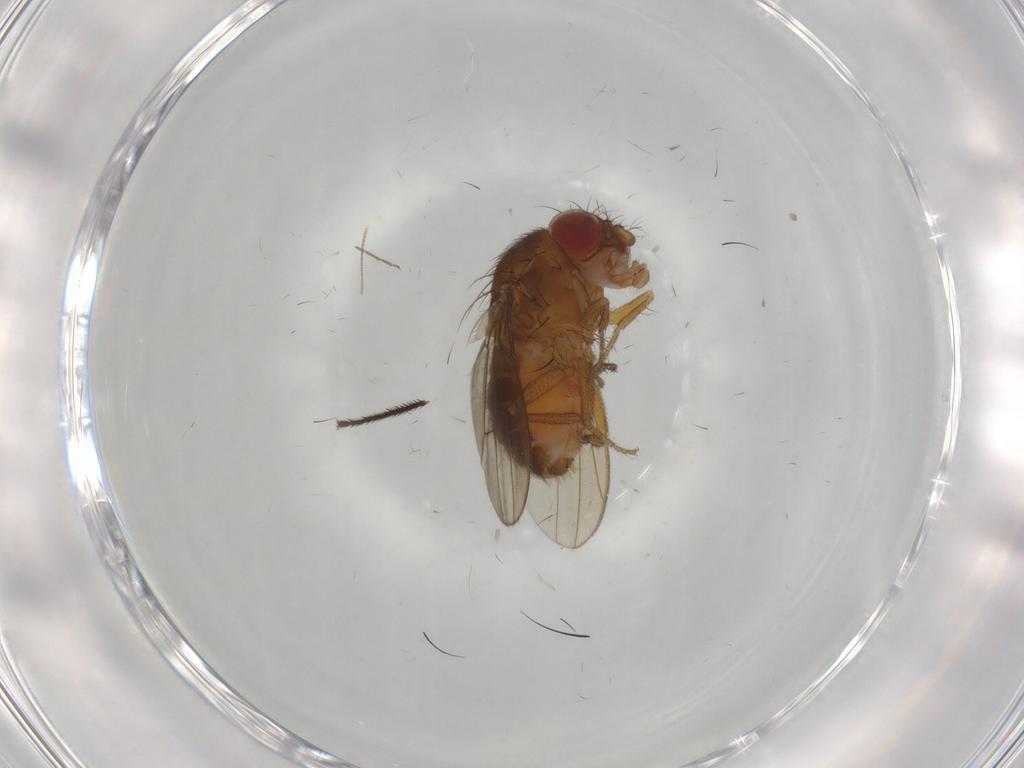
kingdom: Animalia
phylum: Arthropoda
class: Insecta
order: Diptera
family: Drosophilidae
